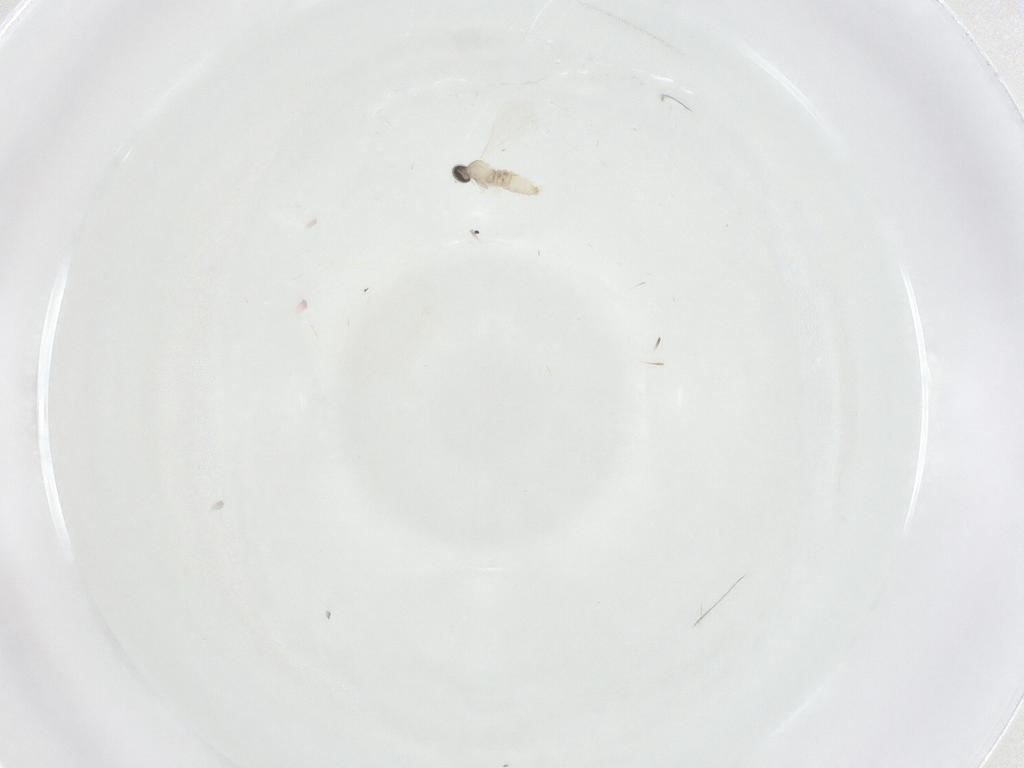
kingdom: Animalia
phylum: Arthropoda
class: Insecta
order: Diptera
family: Cecidomyiidae
